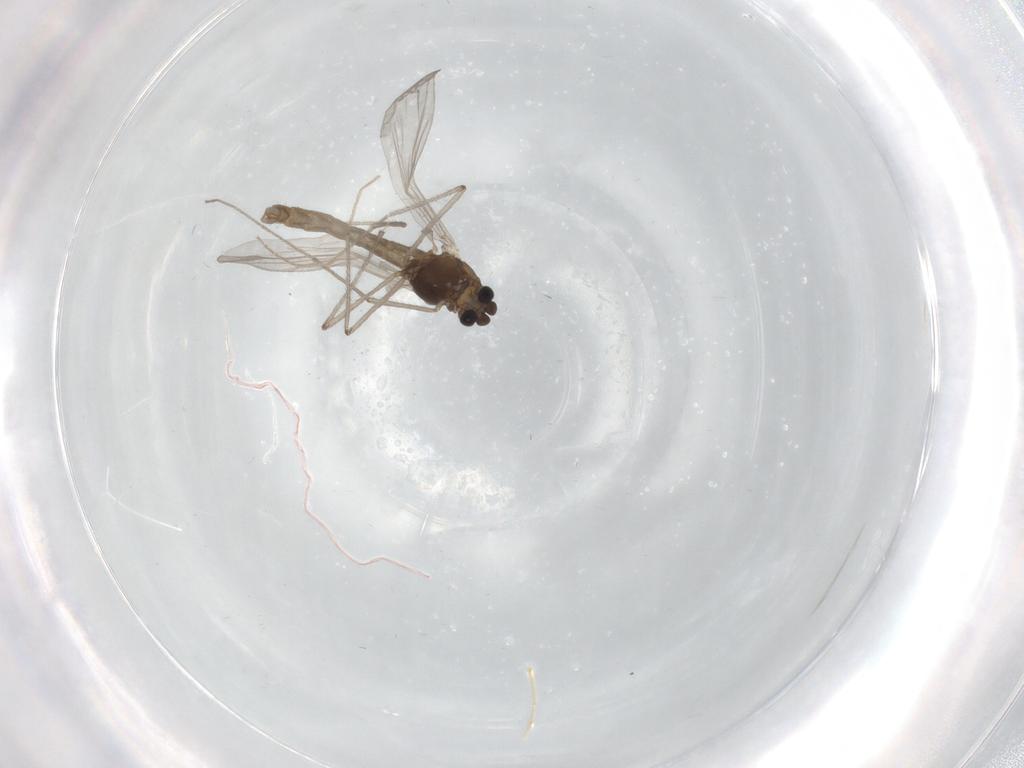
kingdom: Animalia
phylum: Arthropoda
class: Insecta
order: Diptera
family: Chironomidae
